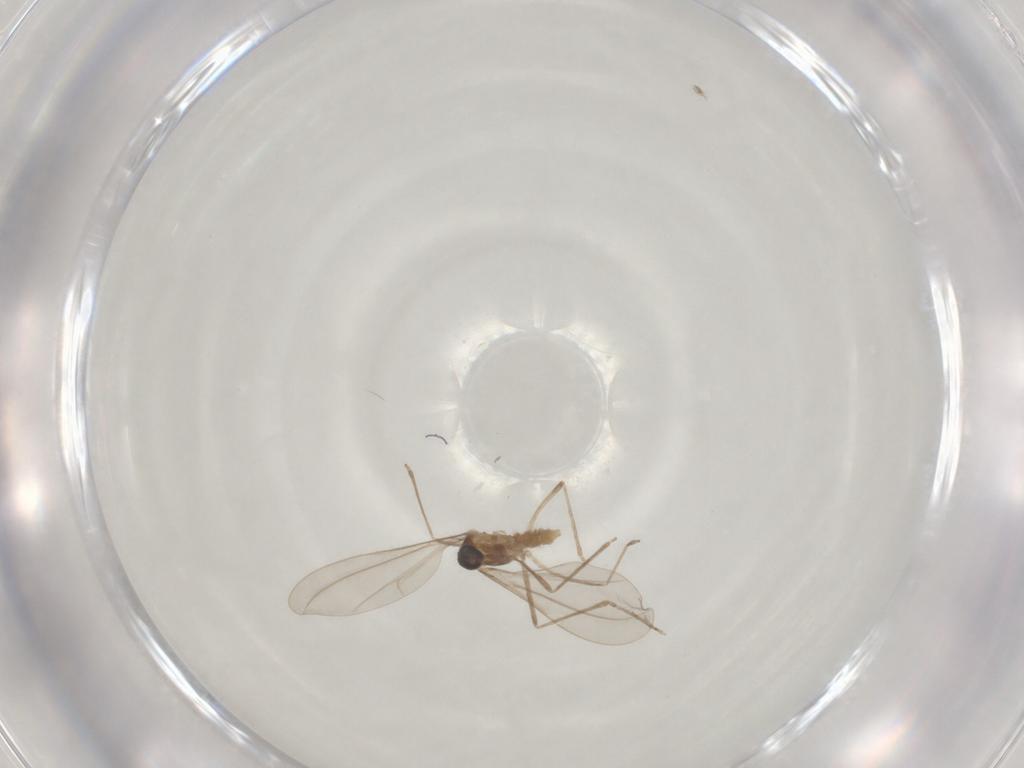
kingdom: Animalia
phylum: Arthropoda
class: Insecta
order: Diptera
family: Cecidomyiidae
